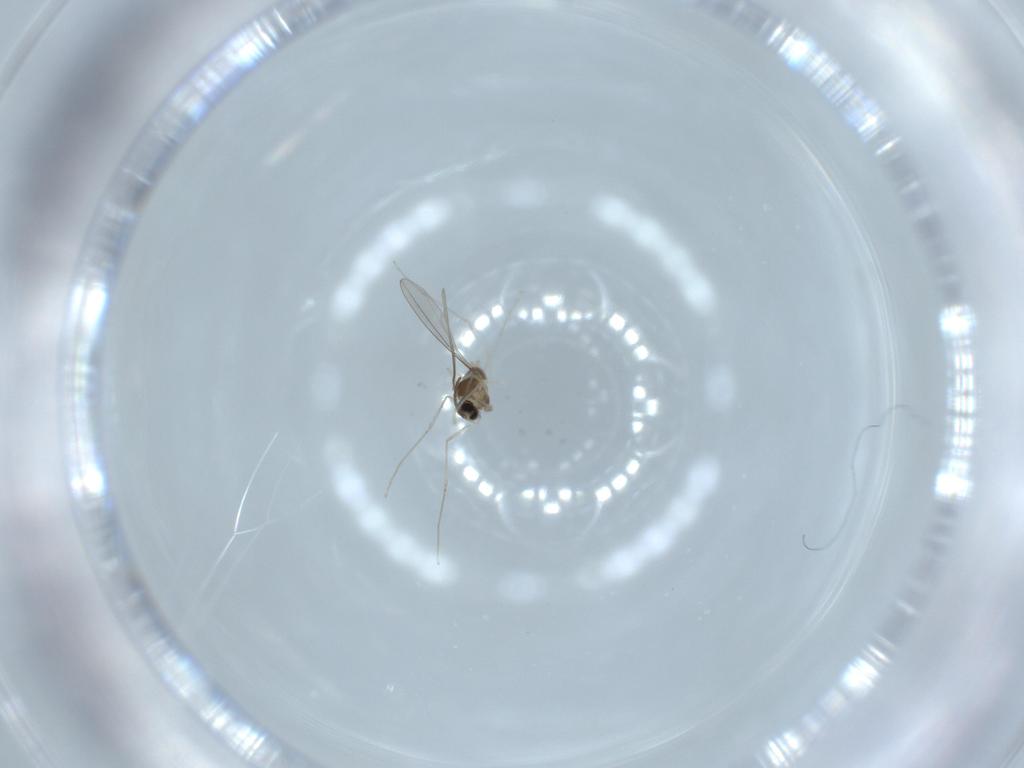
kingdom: Animalia
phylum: Arthropoda
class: Insecta
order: Diptera
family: Cecidomyiidae
